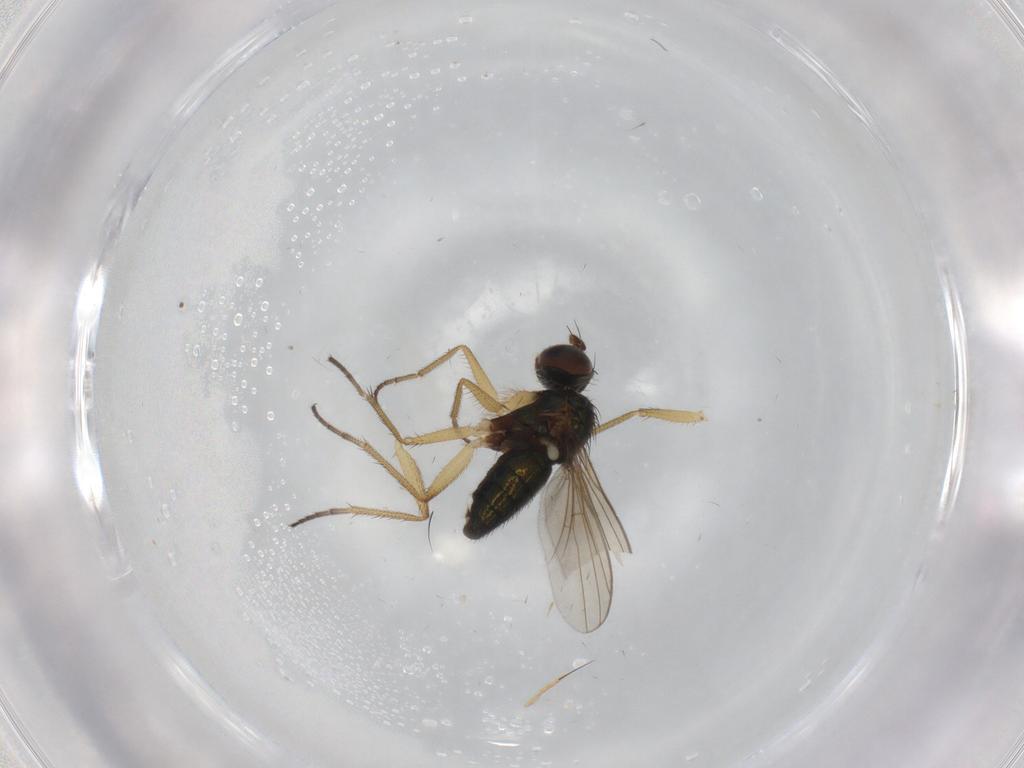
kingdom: Animalia
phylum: Arthropoda
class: Insecta
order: Diptera
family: Dolichopodidae
